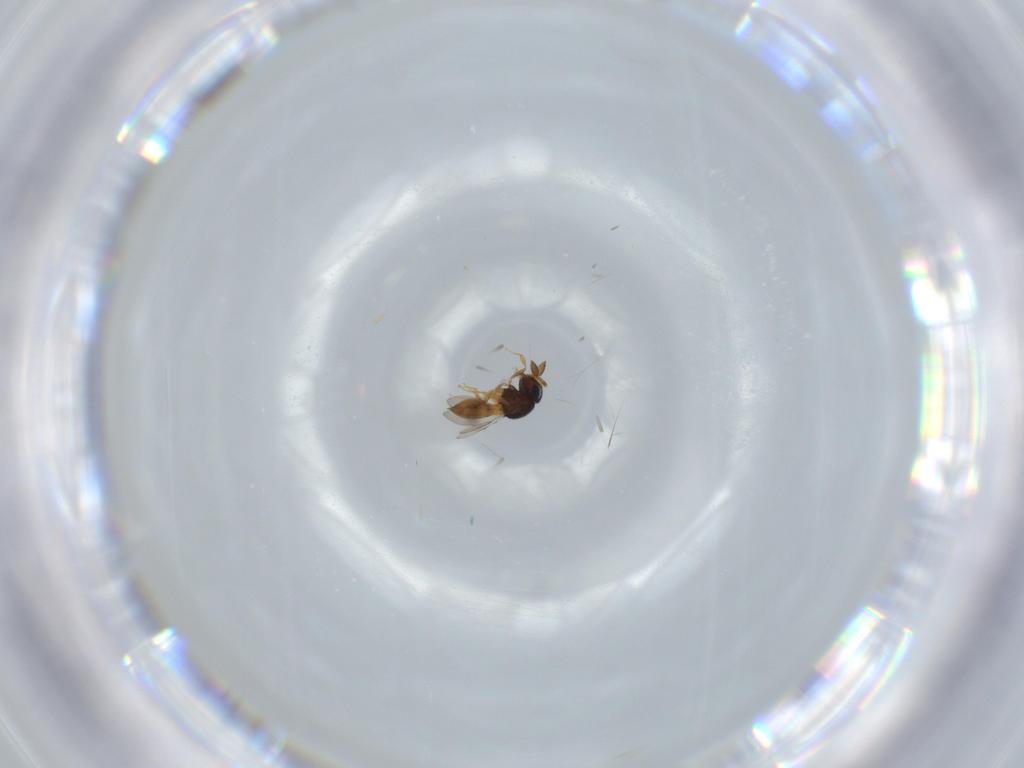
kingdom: Animalia
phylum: Arthropoda
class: Insecta
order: Hymenoptera
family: Scelionidae
